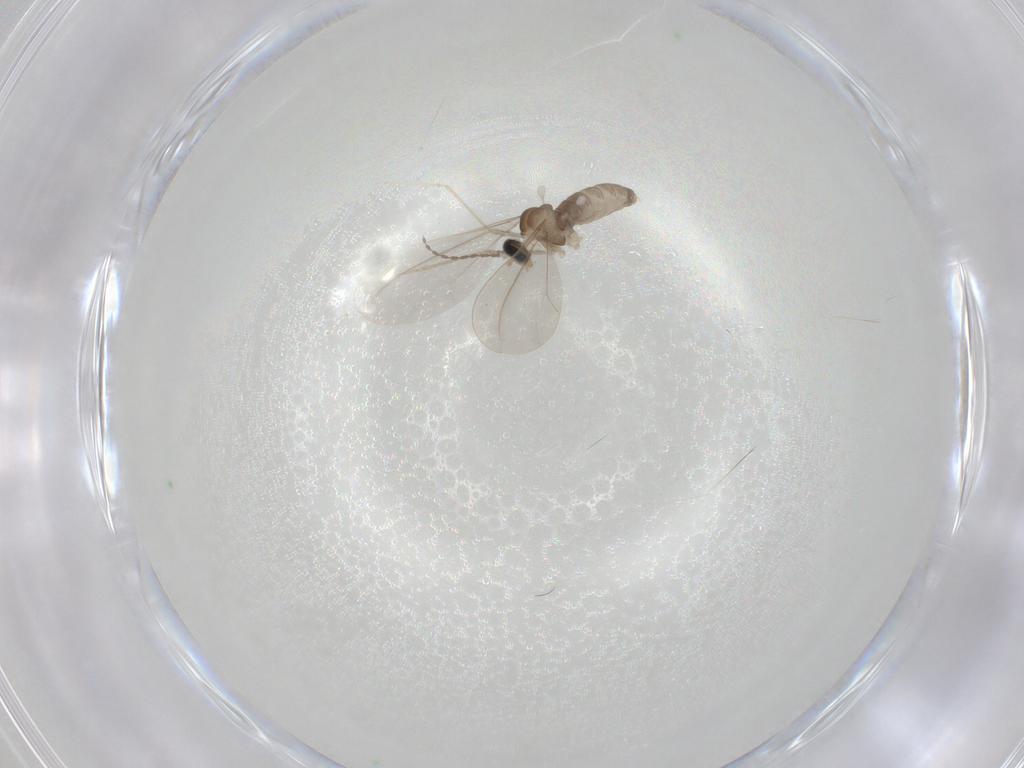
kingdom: Animalia
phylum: Arthropoda
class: Insecta
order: Diptera
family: Cecidomyiidae
